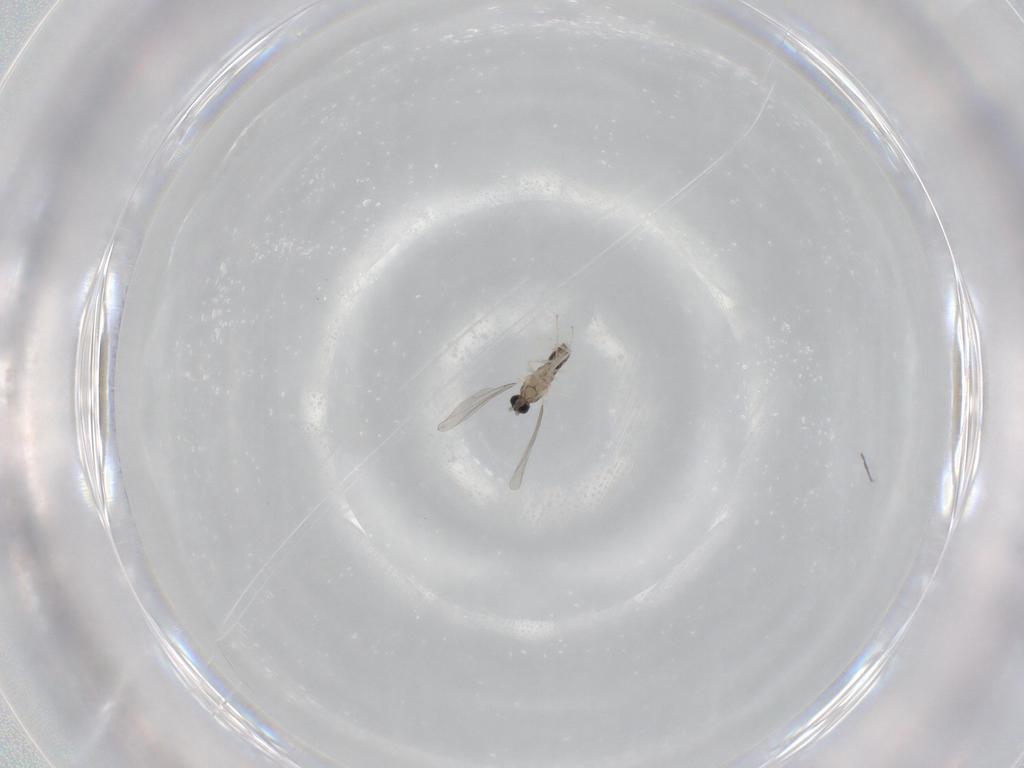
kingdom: Animalia
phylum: Arthropoda
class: Insecta
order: Diptera
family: Cecidomyiidae
